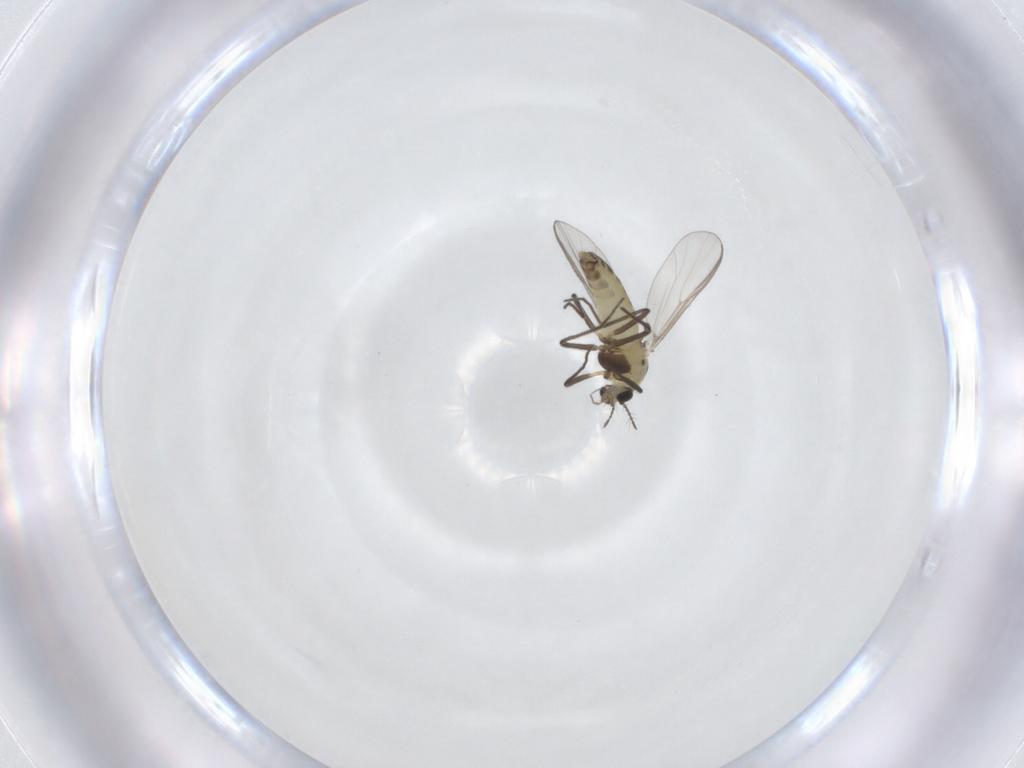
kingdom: Animalia
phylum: Arthropoda
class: Insecta
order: Diptera
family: Chironomidae
